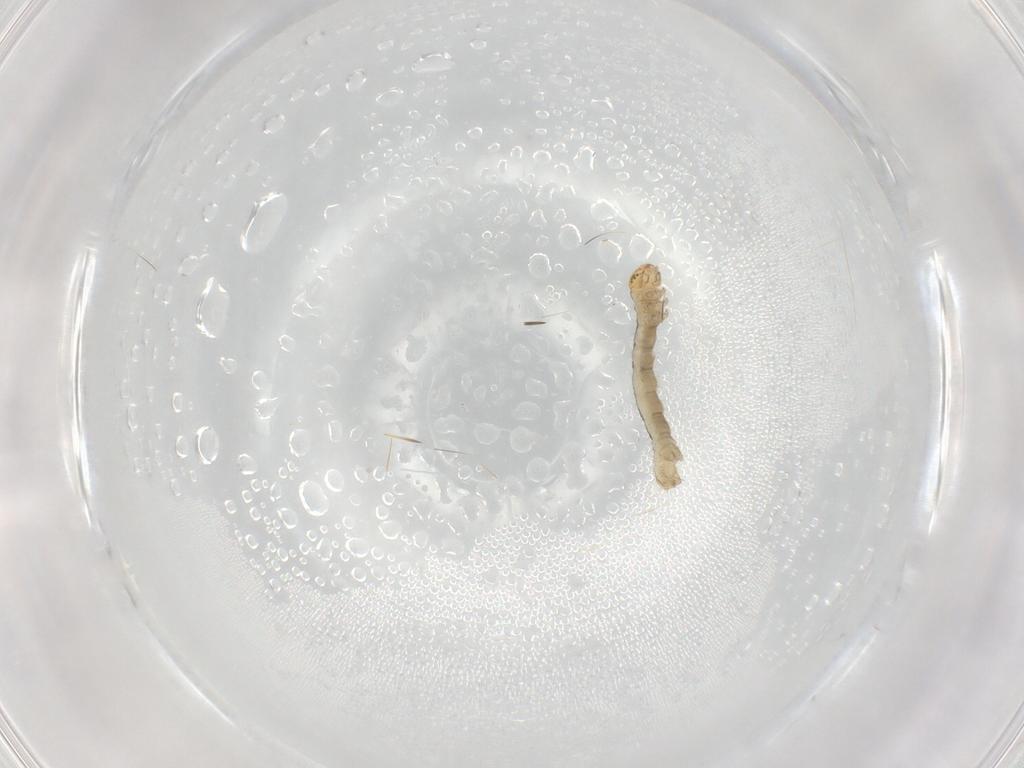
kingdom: Animalia
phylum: Arthropoda
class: Insecta
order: Lepidoptera
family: Geometridae
